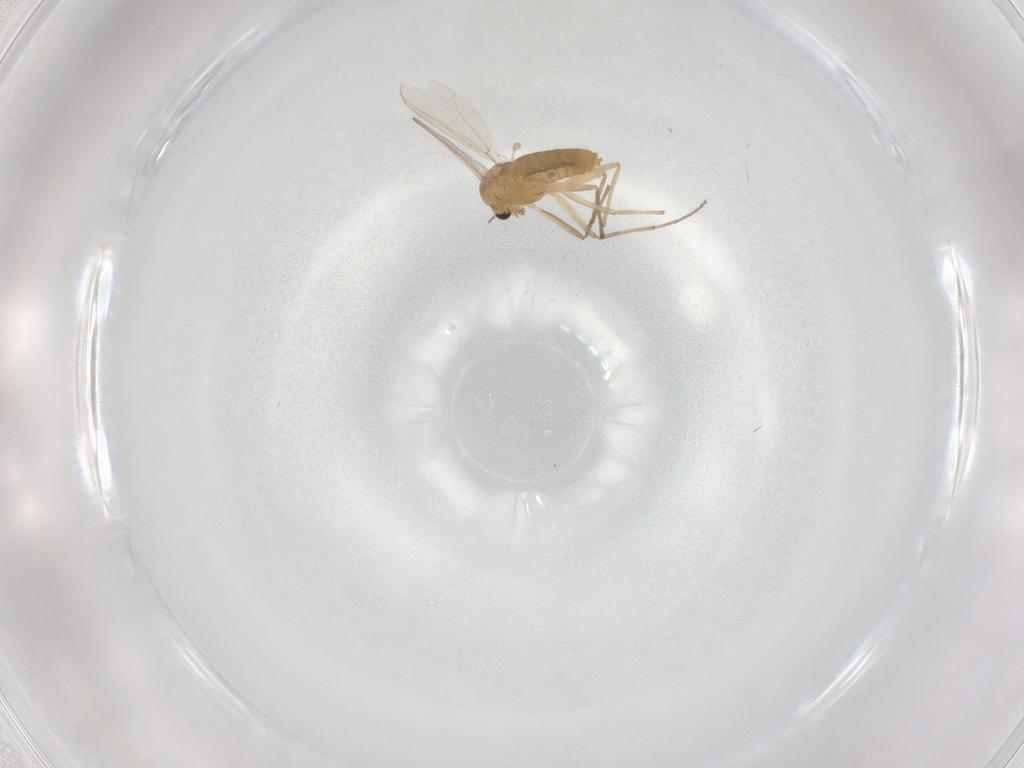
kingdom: Animalia
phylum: Arthropoda
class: Insecta
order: Diptera
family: Chironomidae
